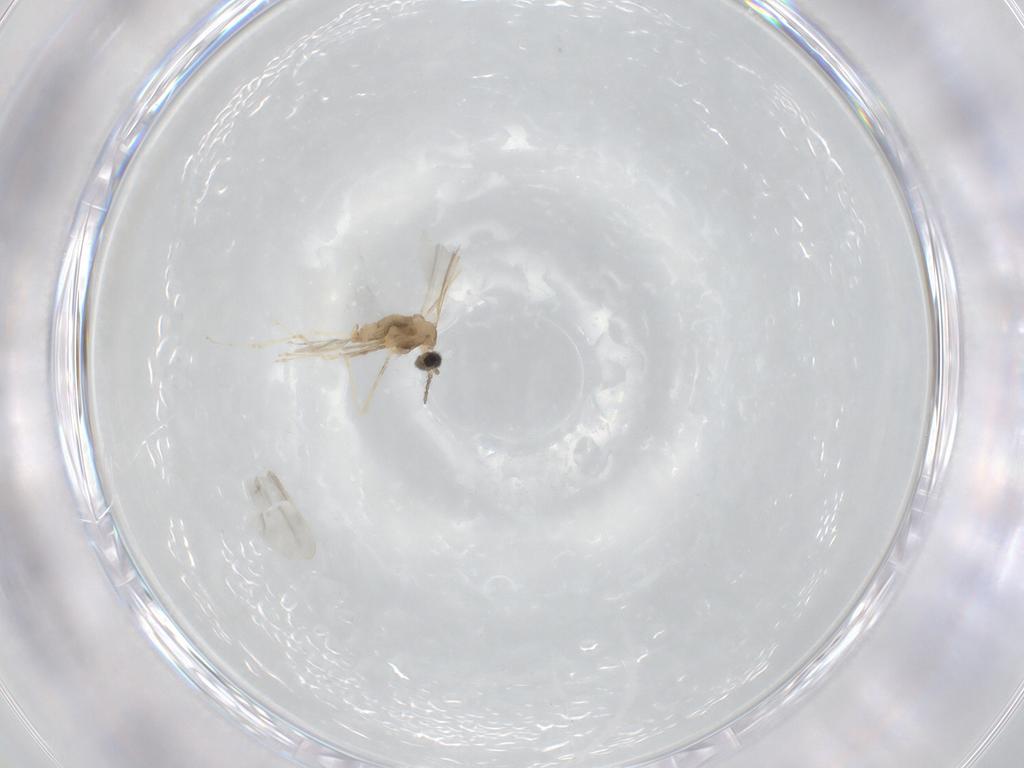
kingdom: Animalia
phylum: Arthropoda
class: Insecta
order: Diptera
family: Cecidomyiidae
